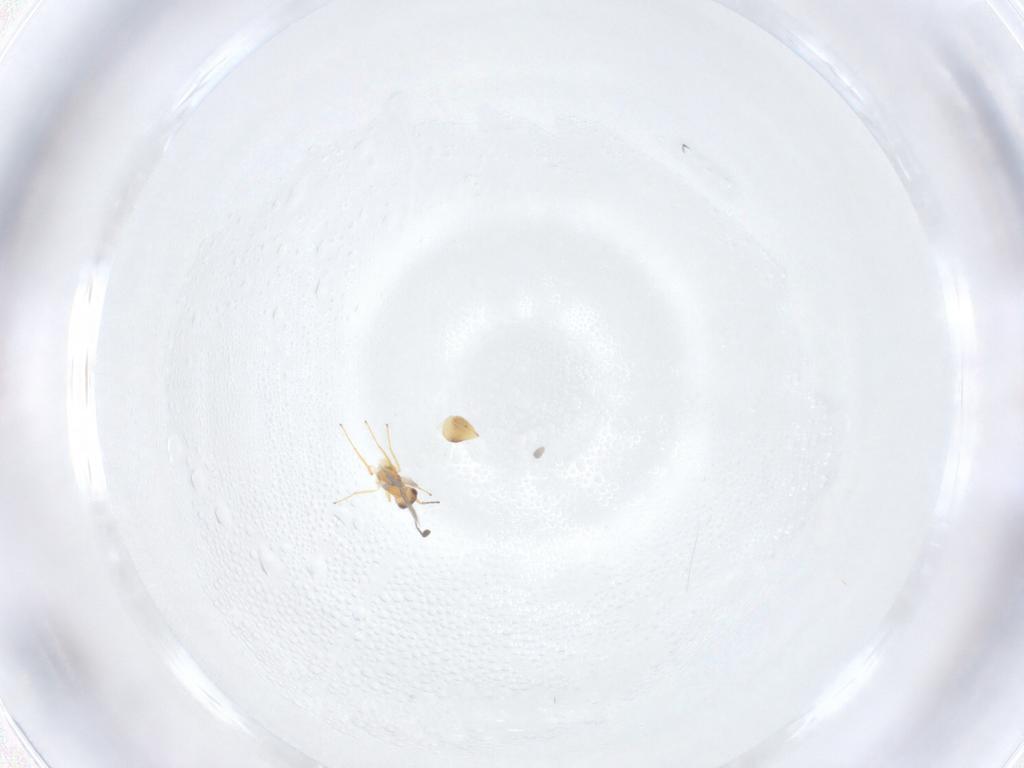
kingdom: Animalia
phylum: Arthropoda
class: Insecta
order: Hymenoptera
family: Mymaridae
